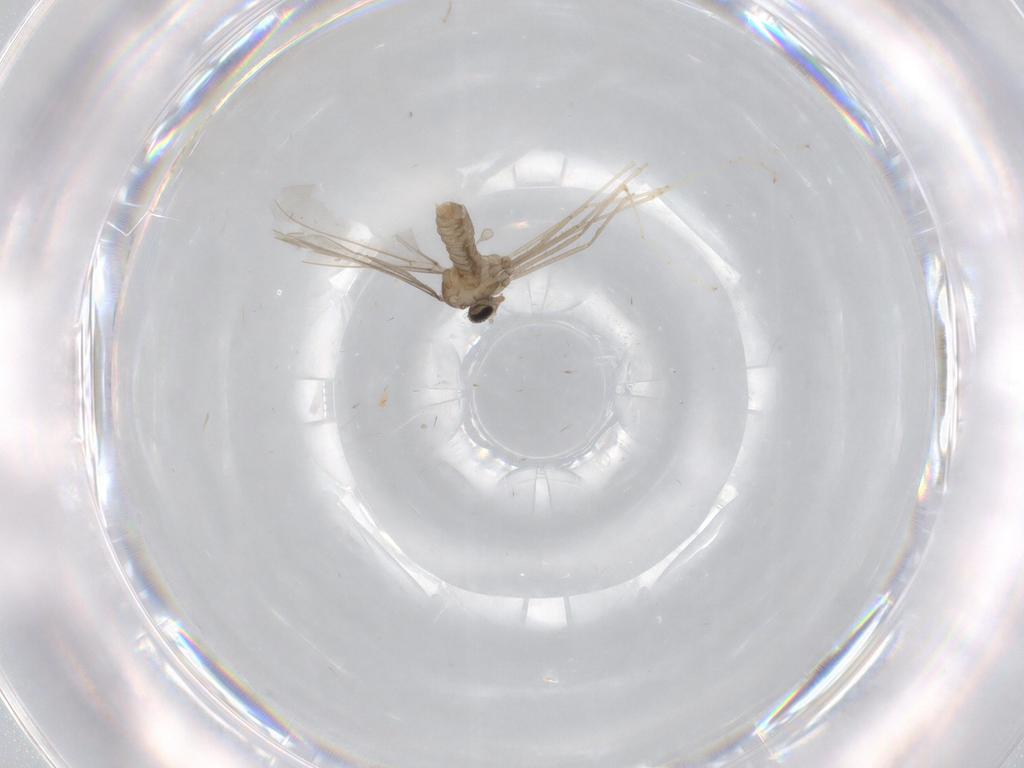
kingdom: Animalia
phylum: Arthropoda
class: Insecta
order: Diptera
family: Cecidomyiidae
